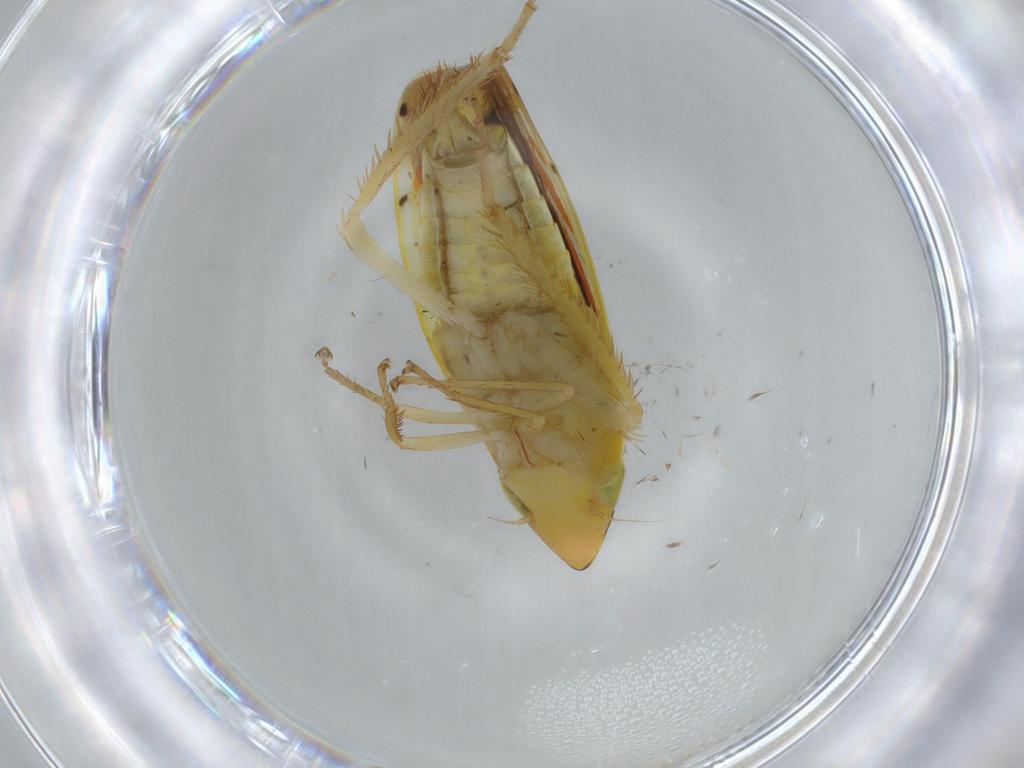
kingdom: Animalia
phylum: Arthropoda
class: Insecta
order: Hemiptera
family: Cicadellidae
